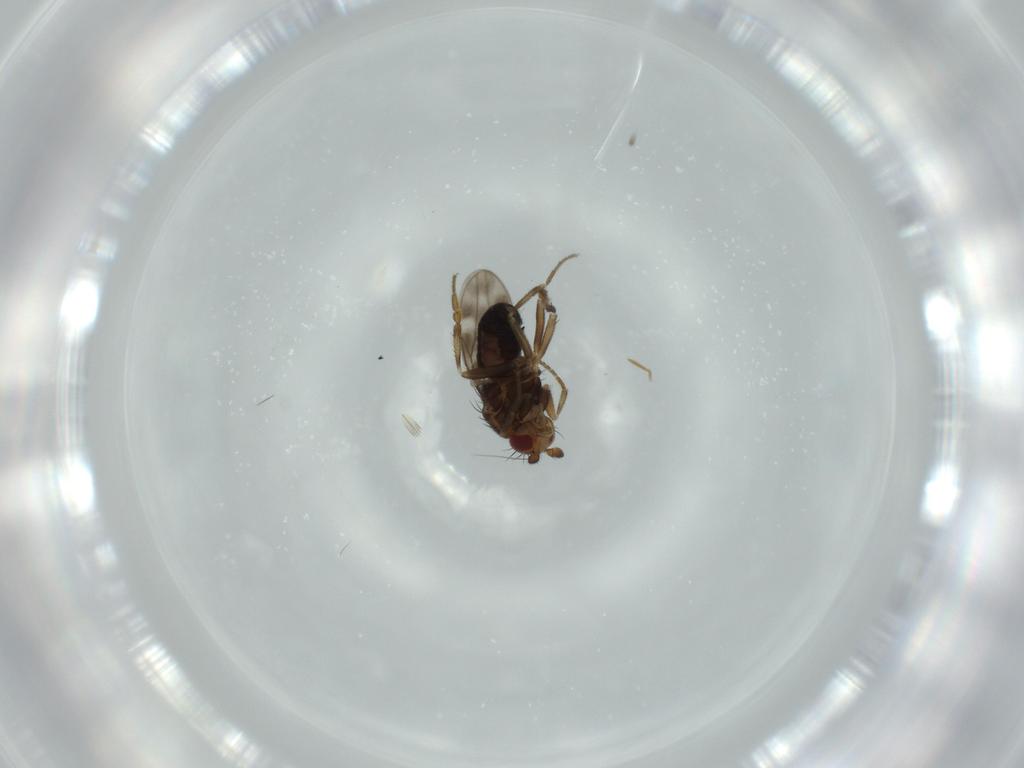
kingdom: Animalia
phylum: Arthropoda
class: Insecta
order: Diptera
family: Sphaeroceridae
